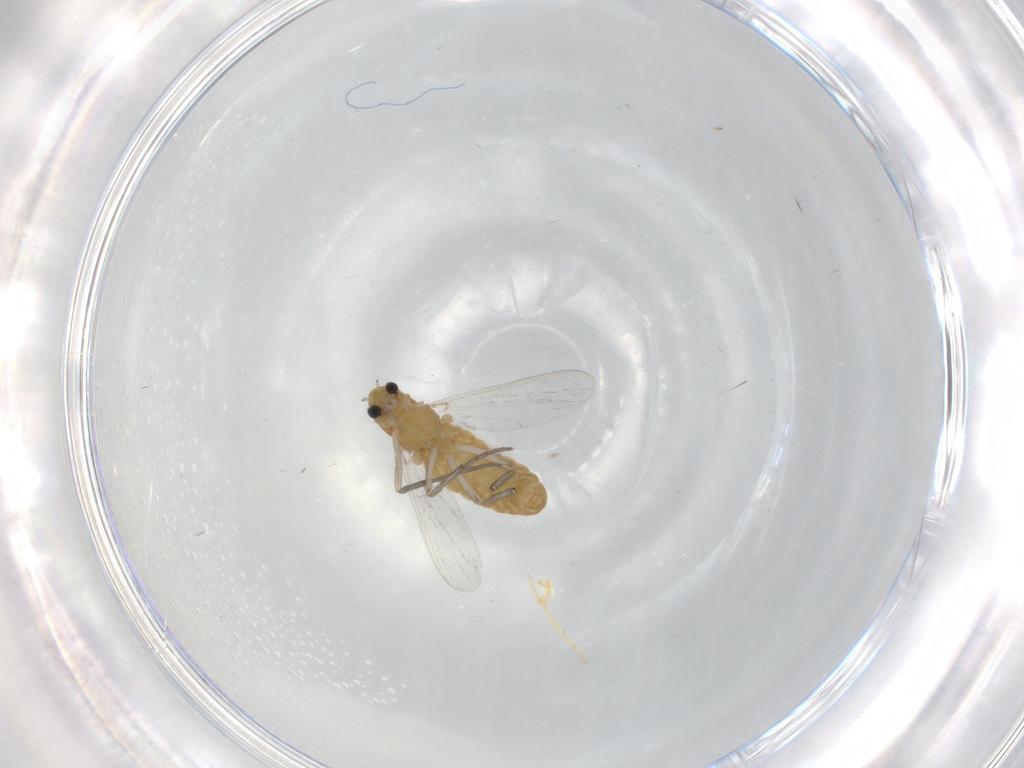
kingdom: Animalia
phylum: Arthropoda
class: Insecta
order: Diptera
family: Chironomidae
